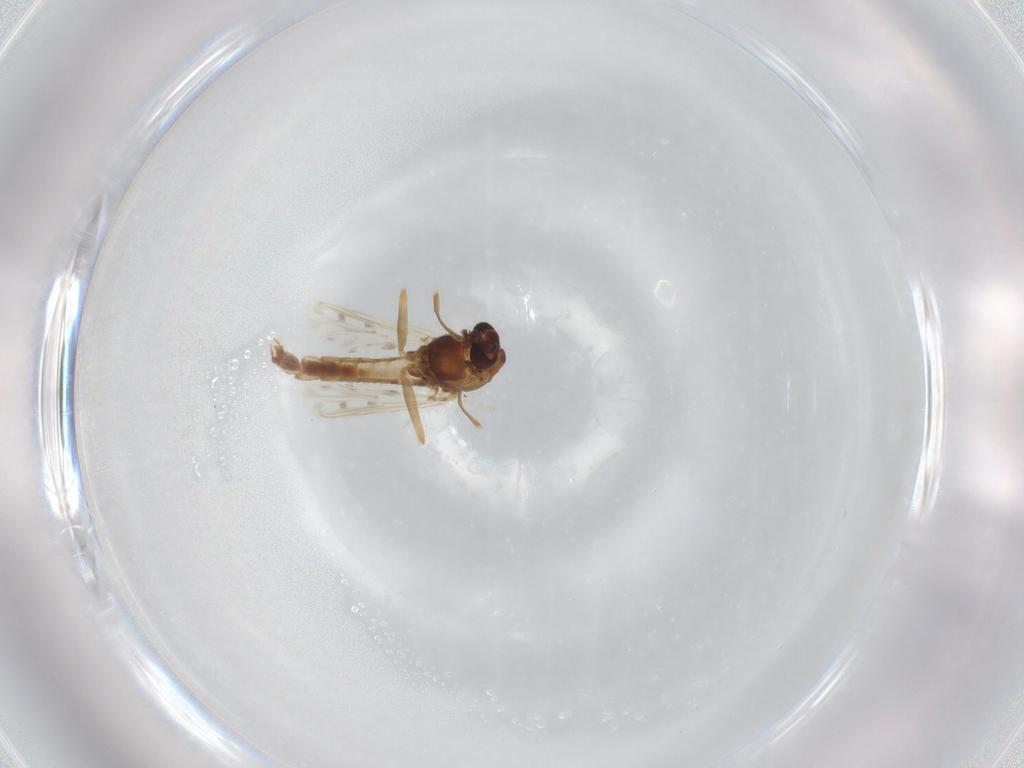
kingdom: Animalia
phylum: Arthropoda
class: Insecta
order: Diptera
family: Chironomidae
